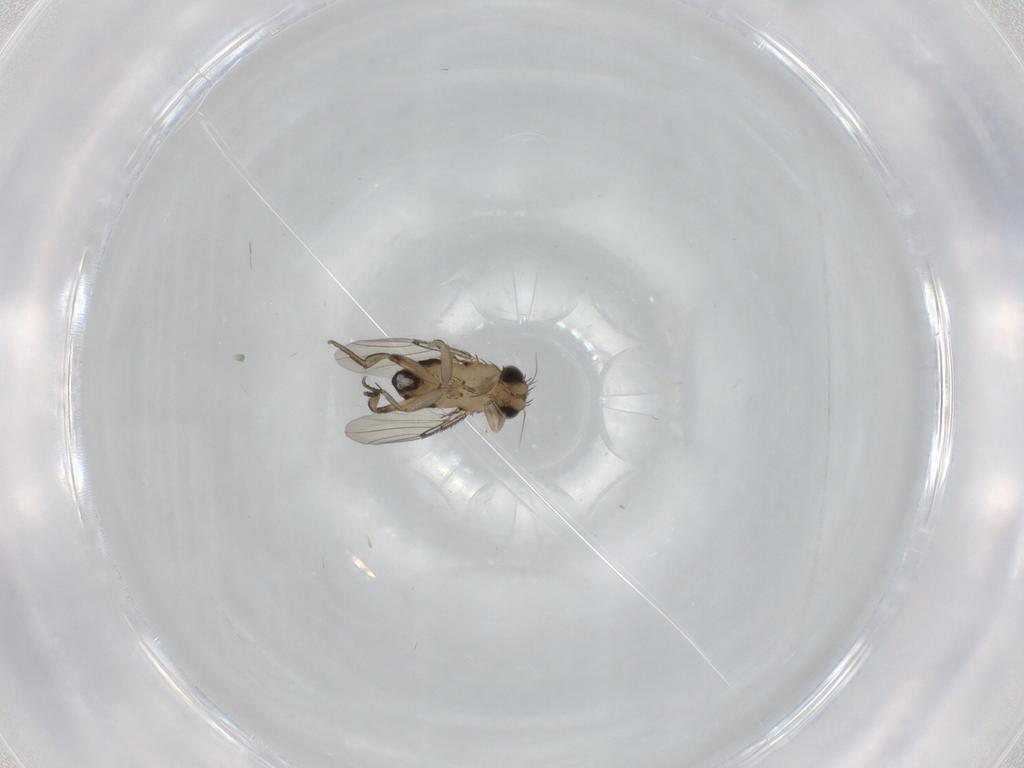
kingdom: Animalia
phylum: Arthropoda
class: Insecta
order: Diptera
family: Phoridae
